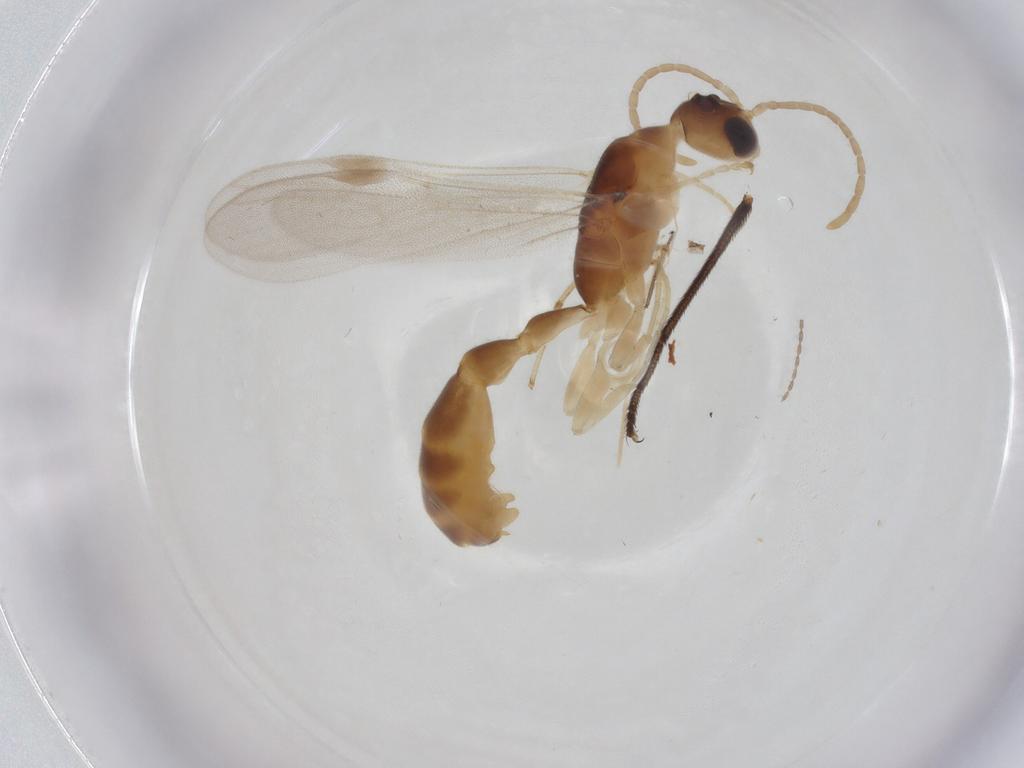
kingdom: Animalia
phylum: Arthropoda
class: Insecta
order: Hymenoptera
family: Formicidae
